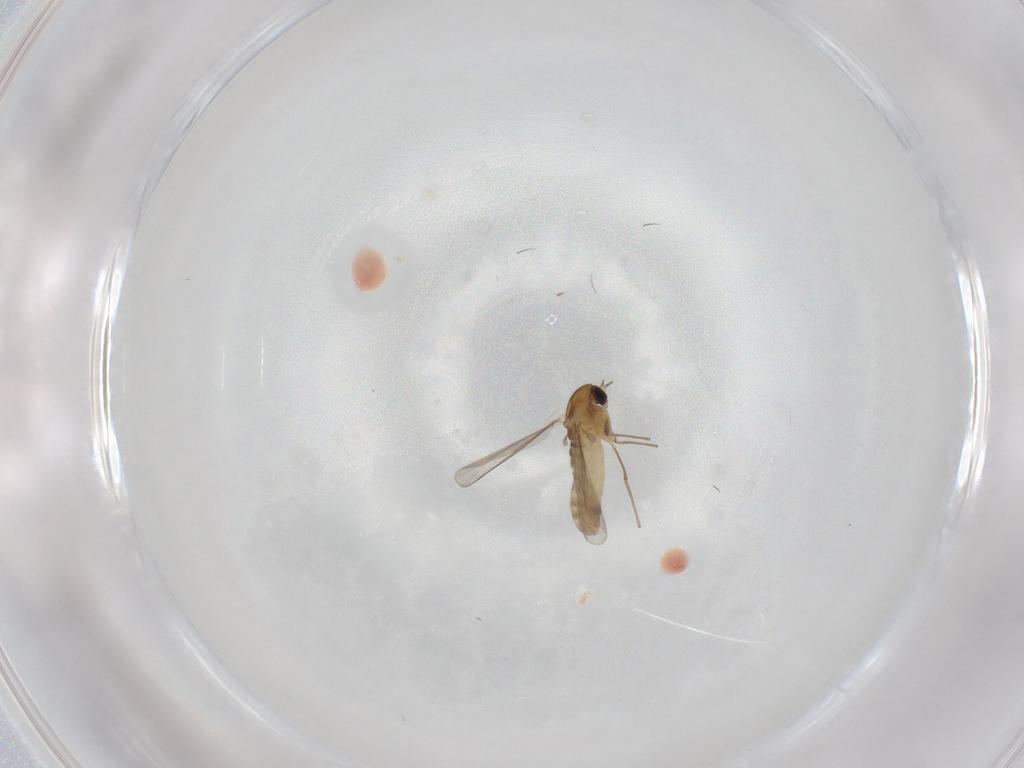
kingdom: Animalia
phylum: Arthropoda
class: Insecta
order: Diptera
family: Chironomidae
